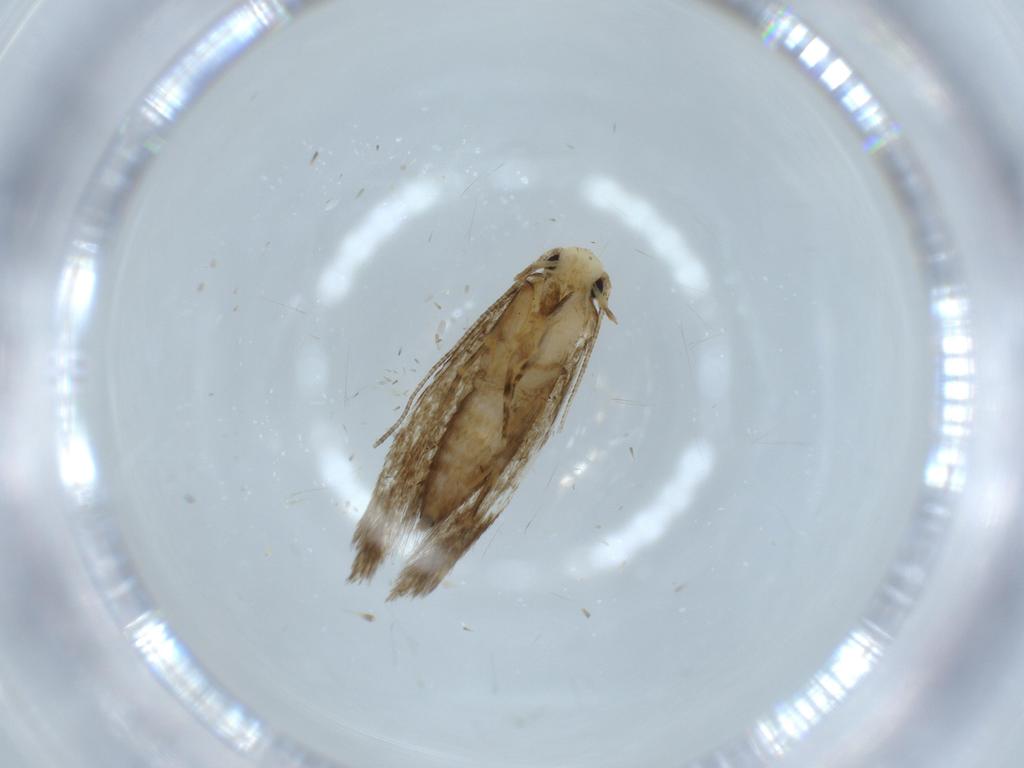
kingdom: Animalia
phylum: Arthropoda
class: Insecta
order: Lepidoptera
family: Tineidae
